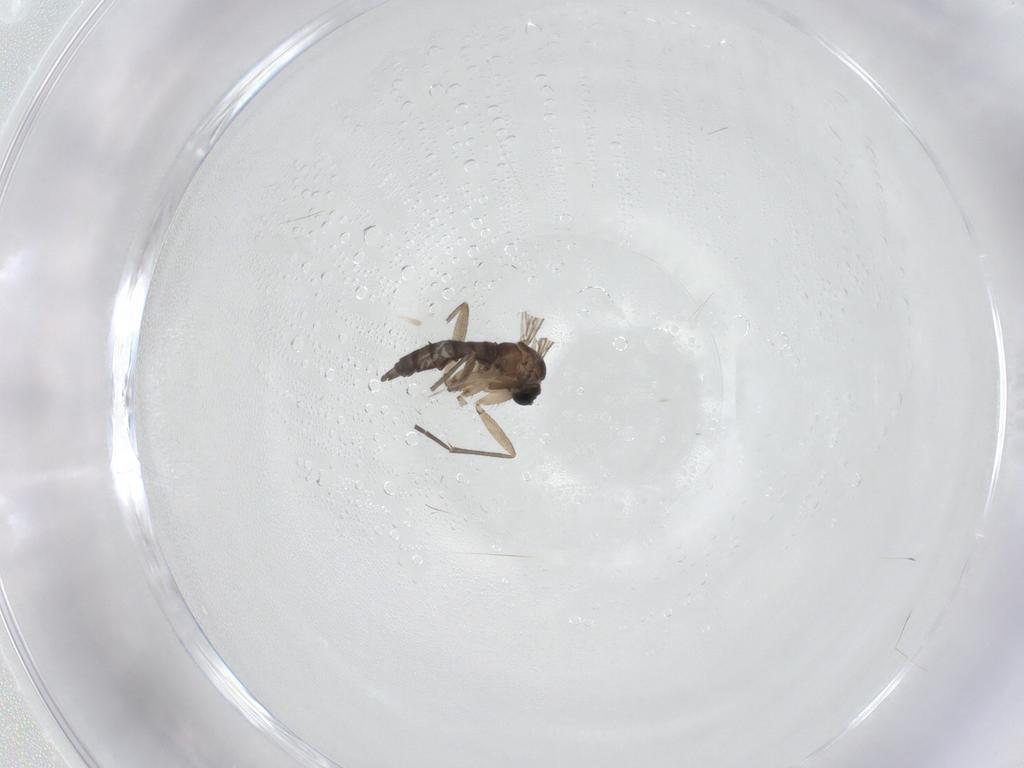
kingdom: Animalia
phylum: Arthropoda
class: Insecta
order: Diptera
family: Sciaridae
